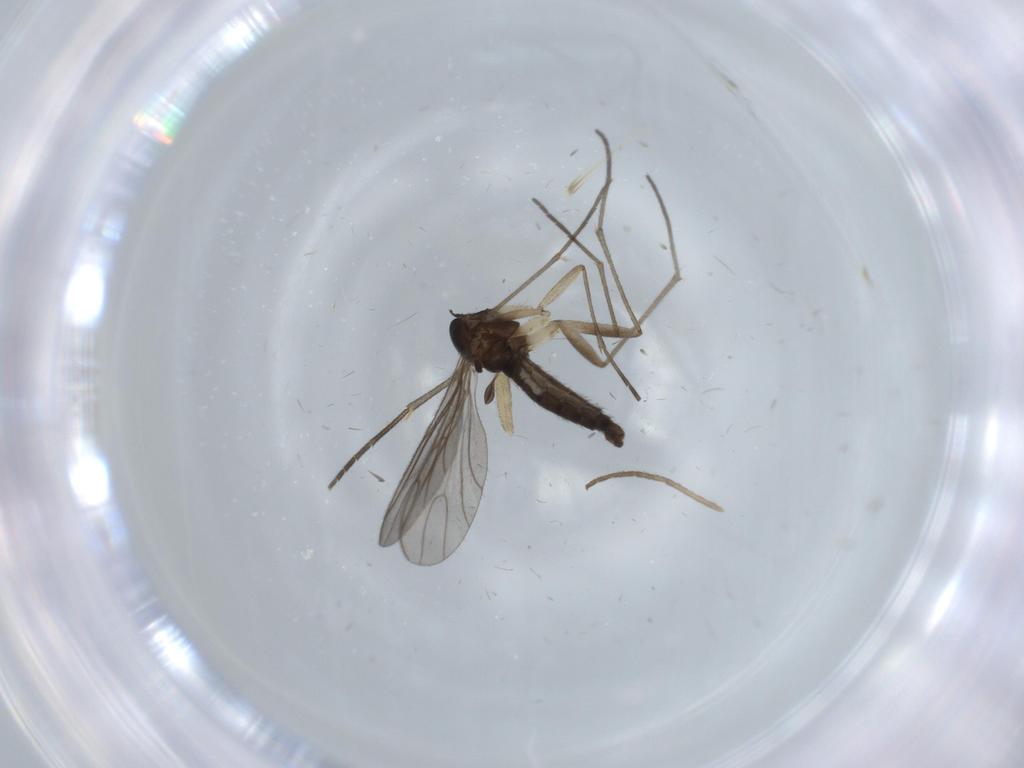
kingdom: Animalia
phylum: Arthropoda
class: Insecta
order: Diptera
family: Sciaridae
